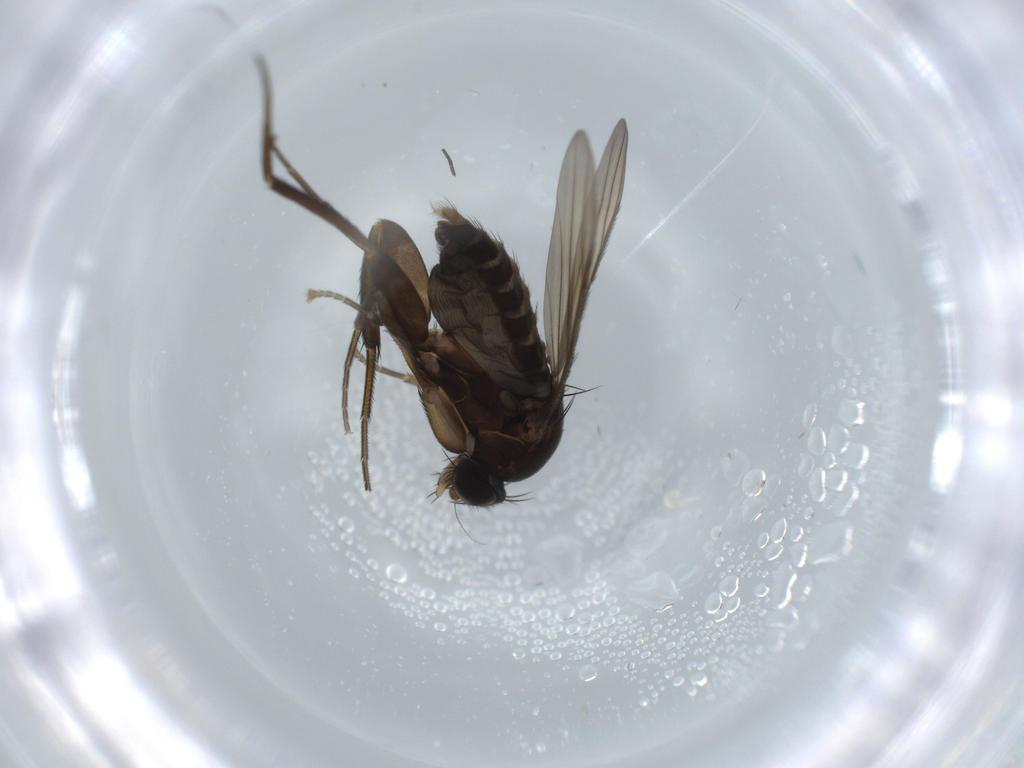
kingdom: Animalia
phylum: Arthropoda
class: Insecta
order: Diptera
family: Phoridae
